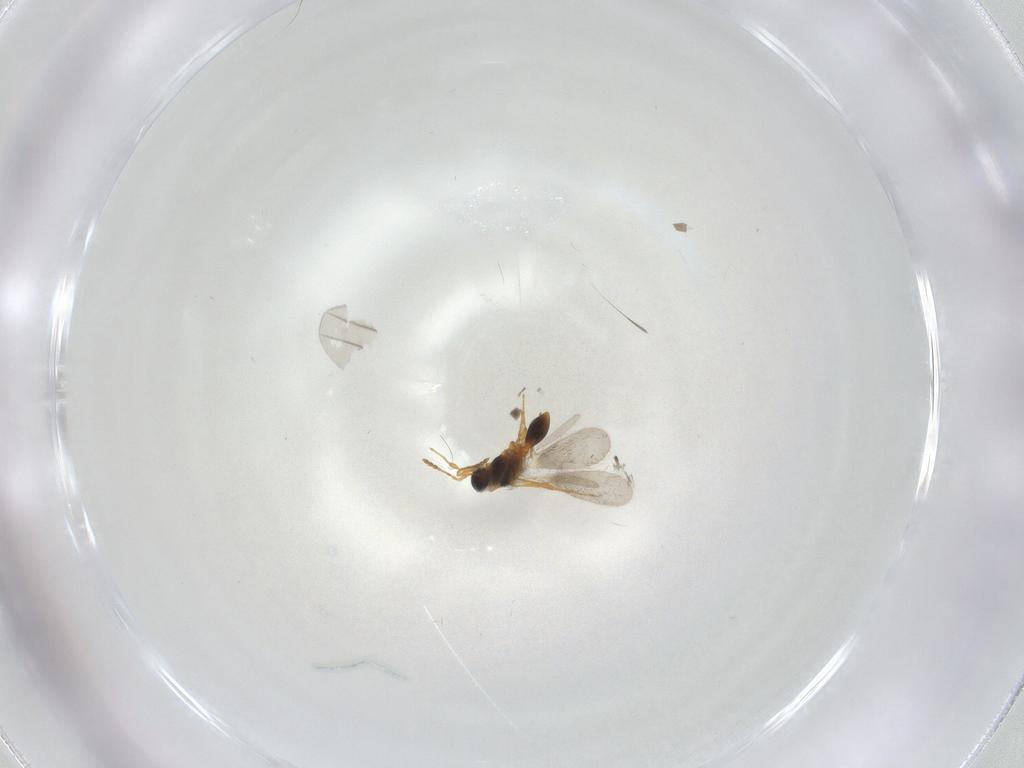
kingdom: Animalia
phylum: Arthropoda
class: Insecta
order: Hymenoptera
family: Platygastridae
